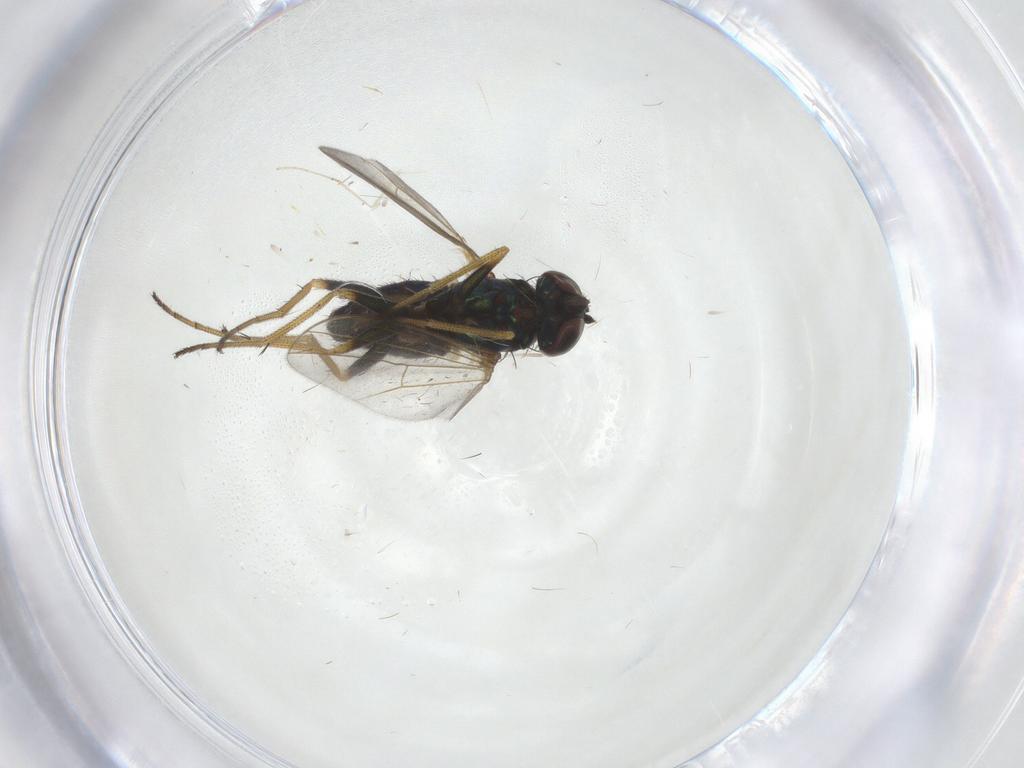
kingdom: Animalia
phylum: Arthropoda
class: Insecta
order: Diptera
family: Dolichopodidae
